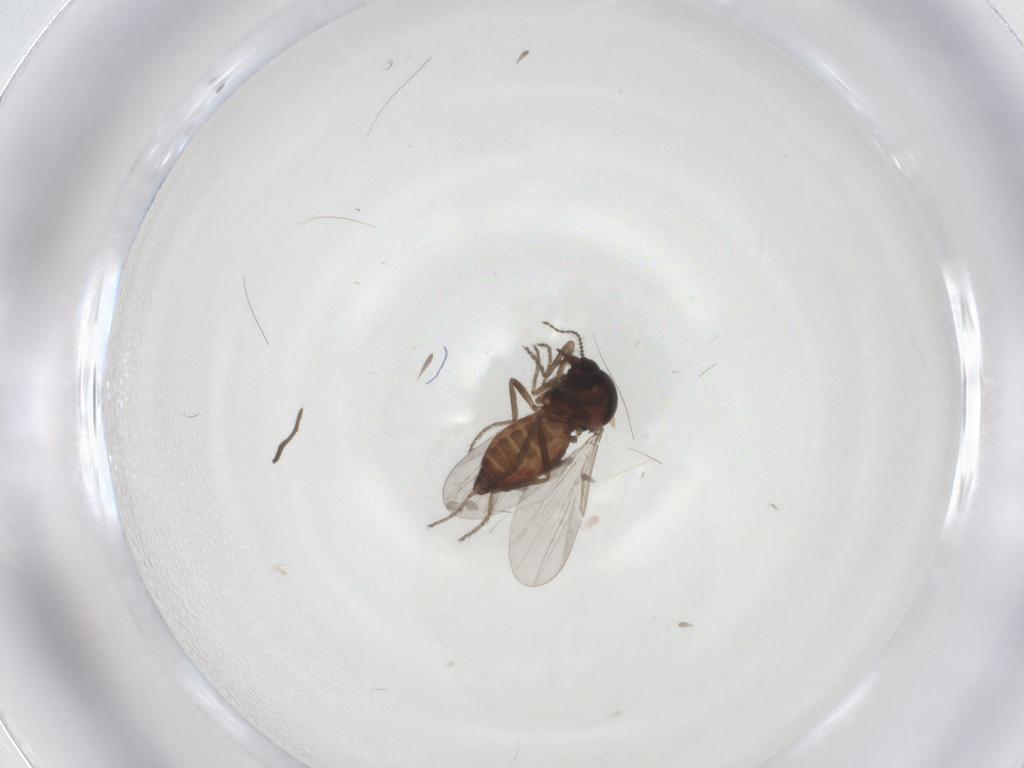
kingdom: Animalia
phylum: Arthropoda
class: Insecta
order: Diptera
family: Ceratopogonidae
